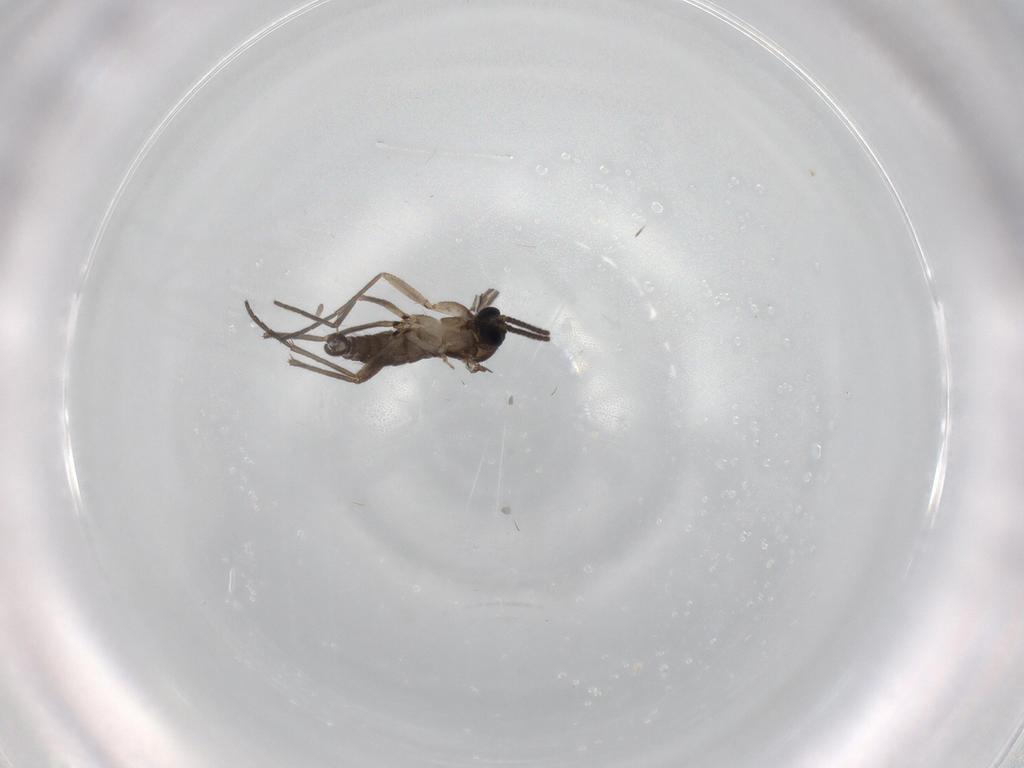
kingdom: Animalia
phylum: Arthropoda
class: Insecta
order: Diptera
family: Sciaridae
